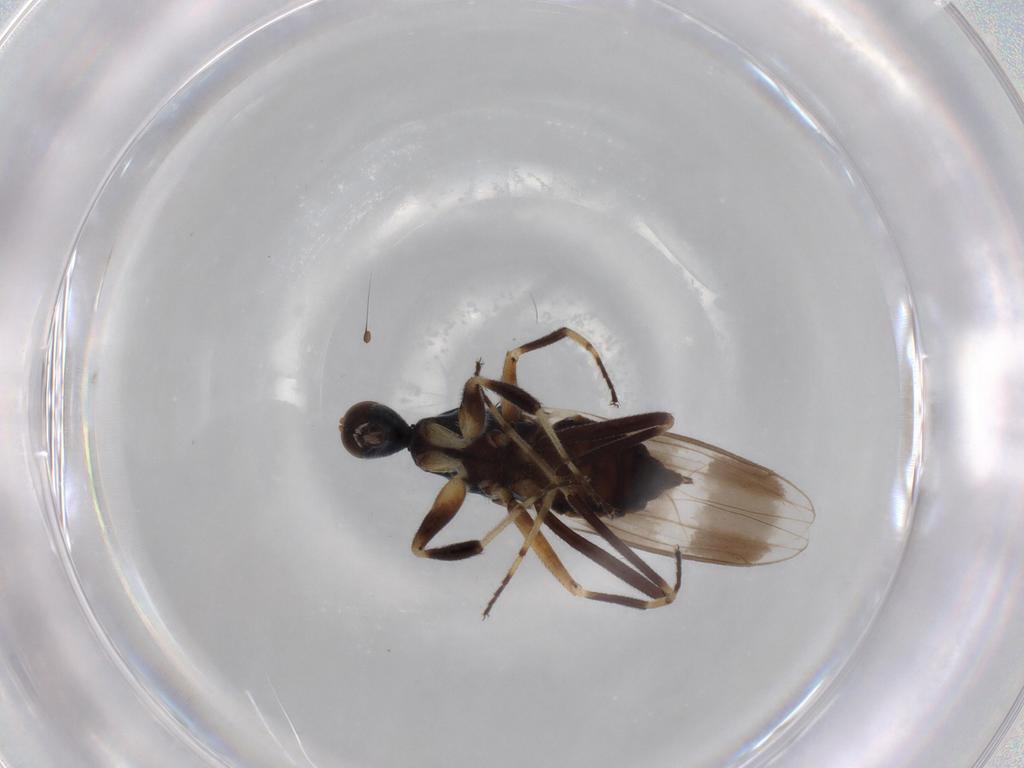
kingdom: Animalia
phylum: Arthropoda
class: Insecta
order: Diptera
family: Hybotidae
